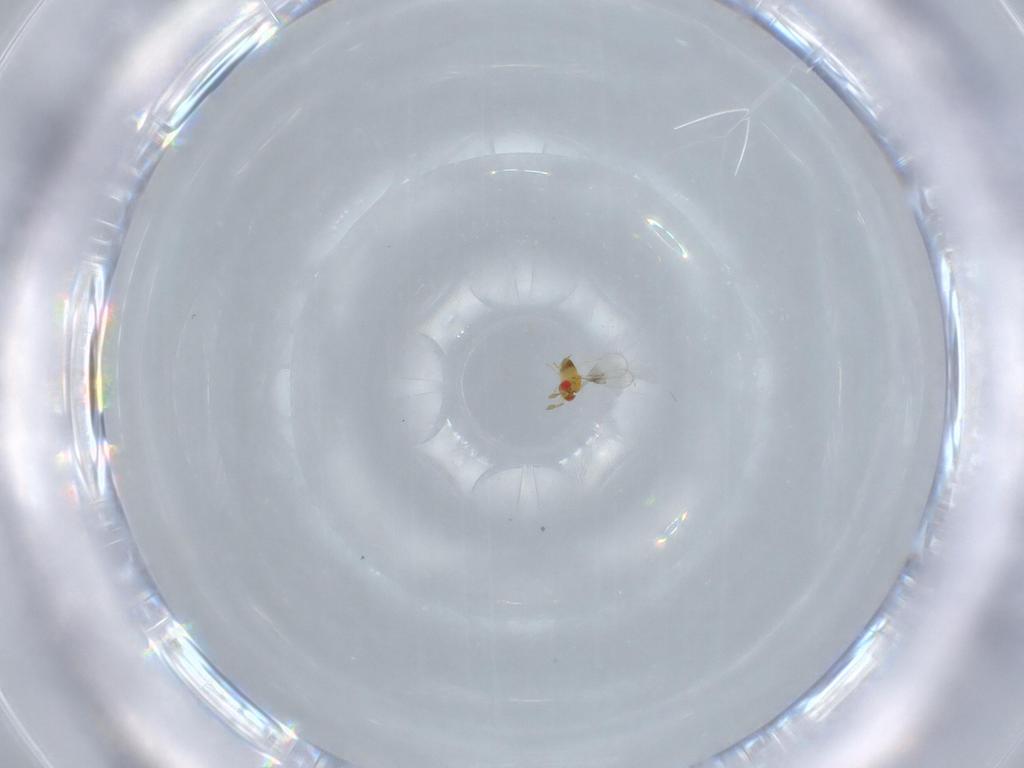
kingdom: Animalia
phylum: Arthropoda
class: Insecta
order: Hymenoptera
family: Trichogrammatidae
